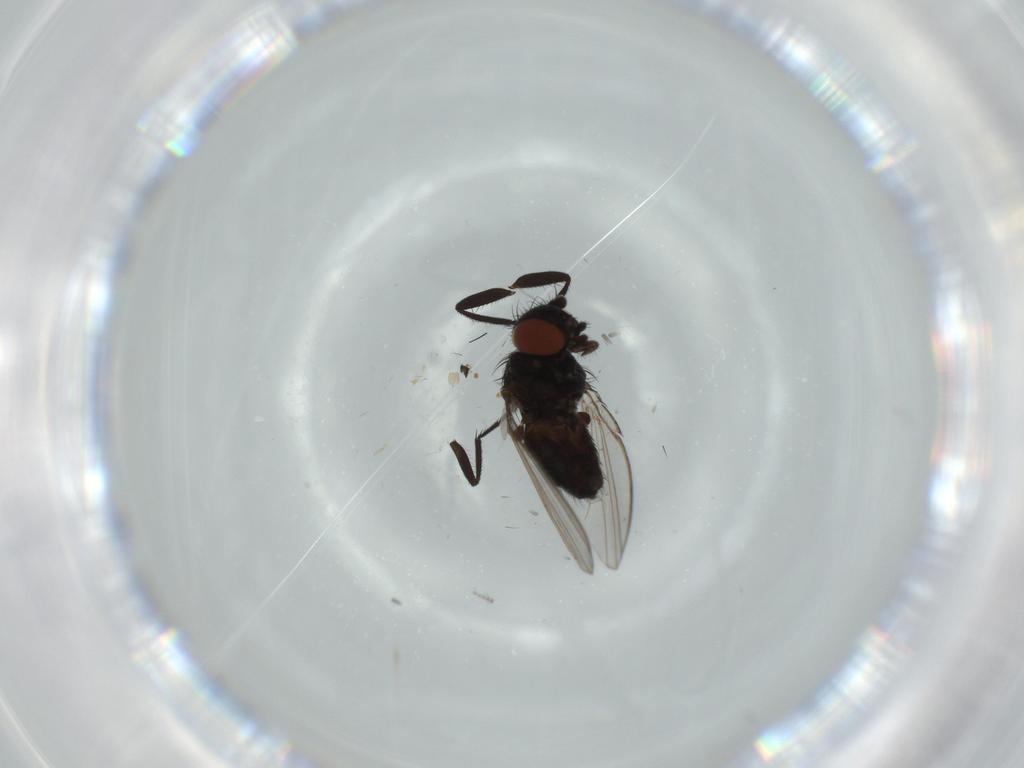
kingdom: Animalia
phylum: Arthropoda
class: Insecta
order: Diptera
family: Milichiidae
